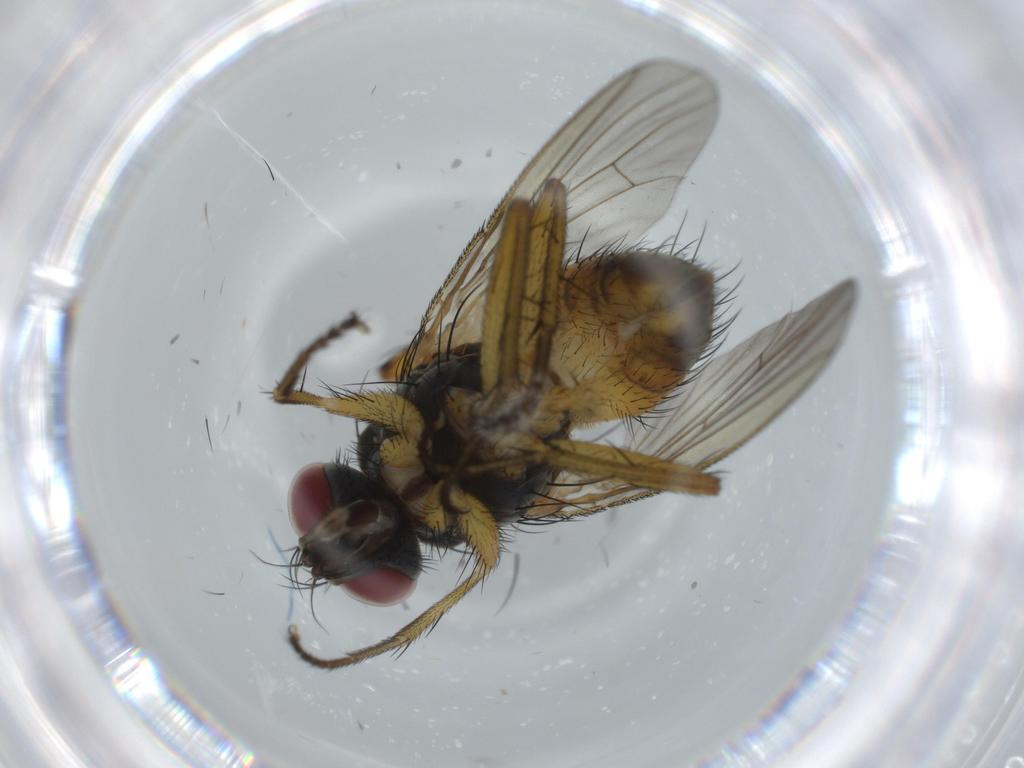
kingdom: Animalia
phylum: Arthropoda
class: Insecta
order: Diptera
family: Muscidae
